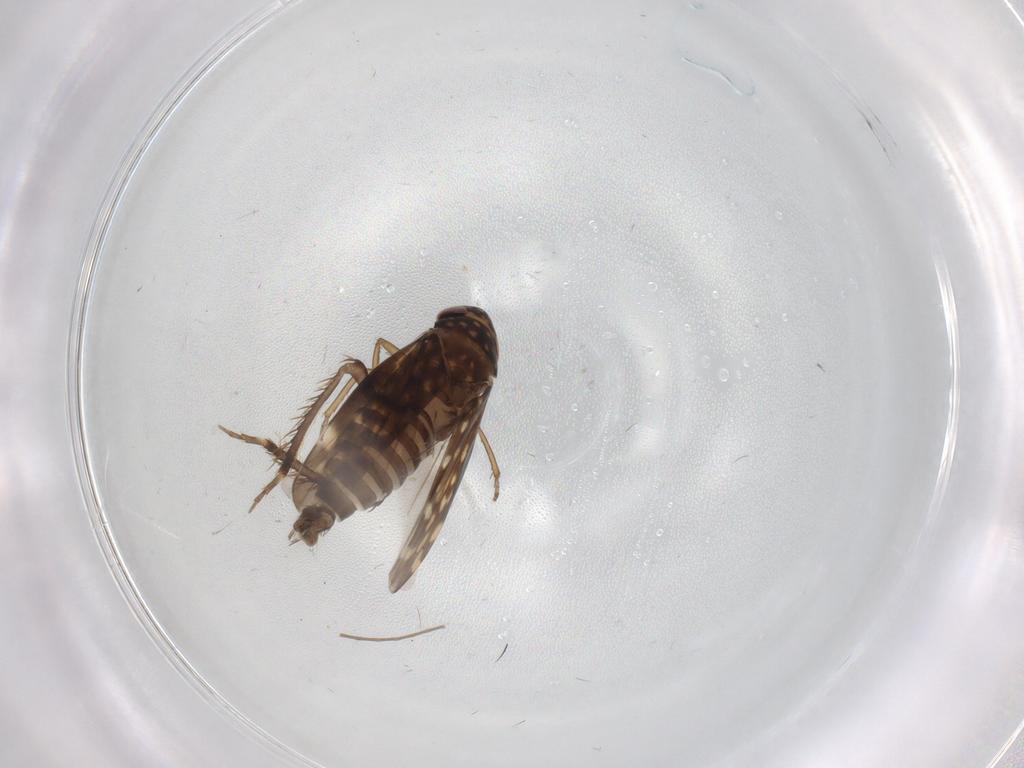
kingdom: Animalia
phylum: Arthropoda
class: Insecta
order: Hemiptera
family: Cicadellidae
